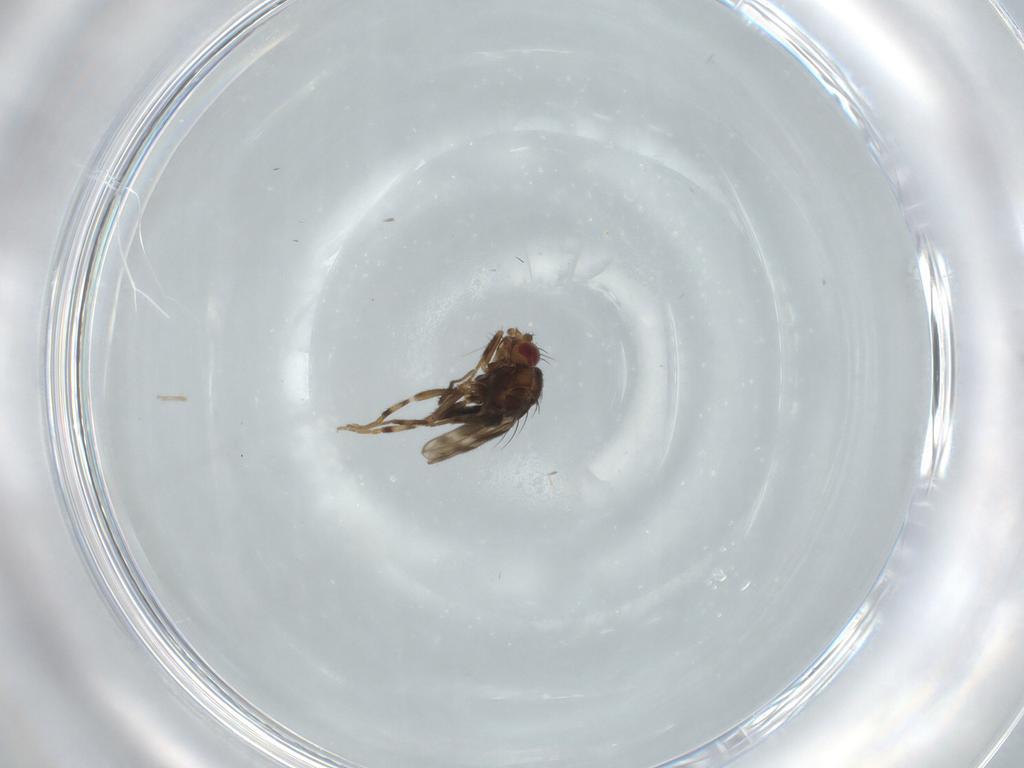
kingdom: Animalia
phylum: Arthropoda
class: Insecta
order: Diptera
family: Sphaeroceridae
